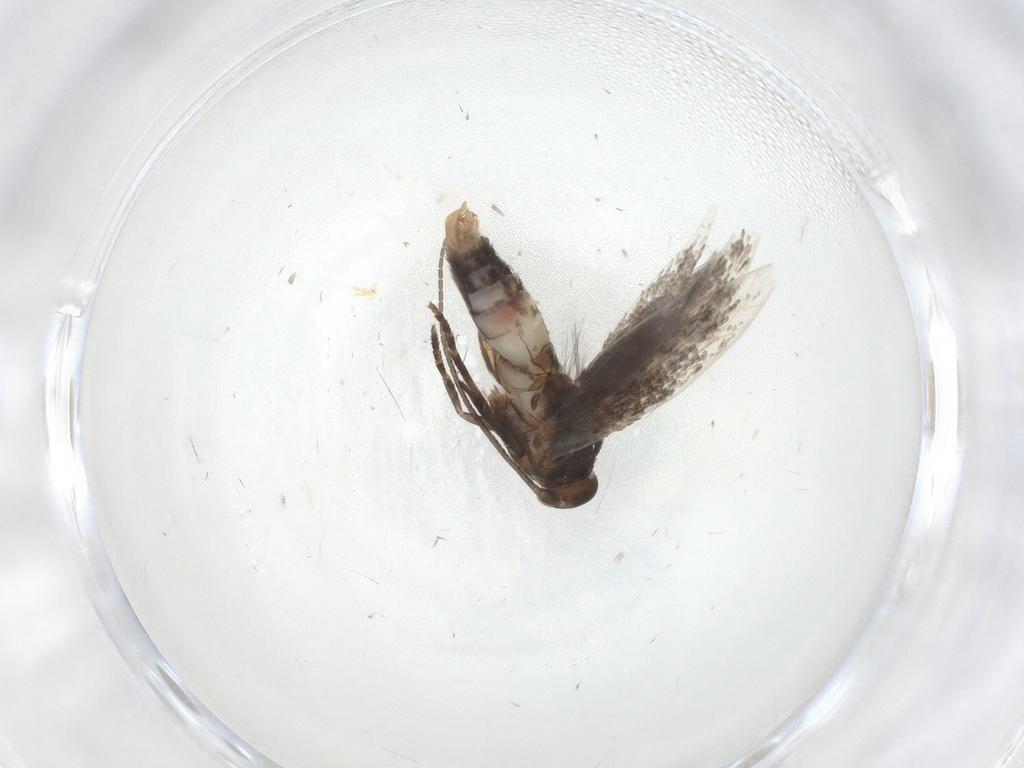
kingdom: Animalia
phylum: Arthropoda
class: Insecta
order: Lepidoptera
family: Elachistidae
